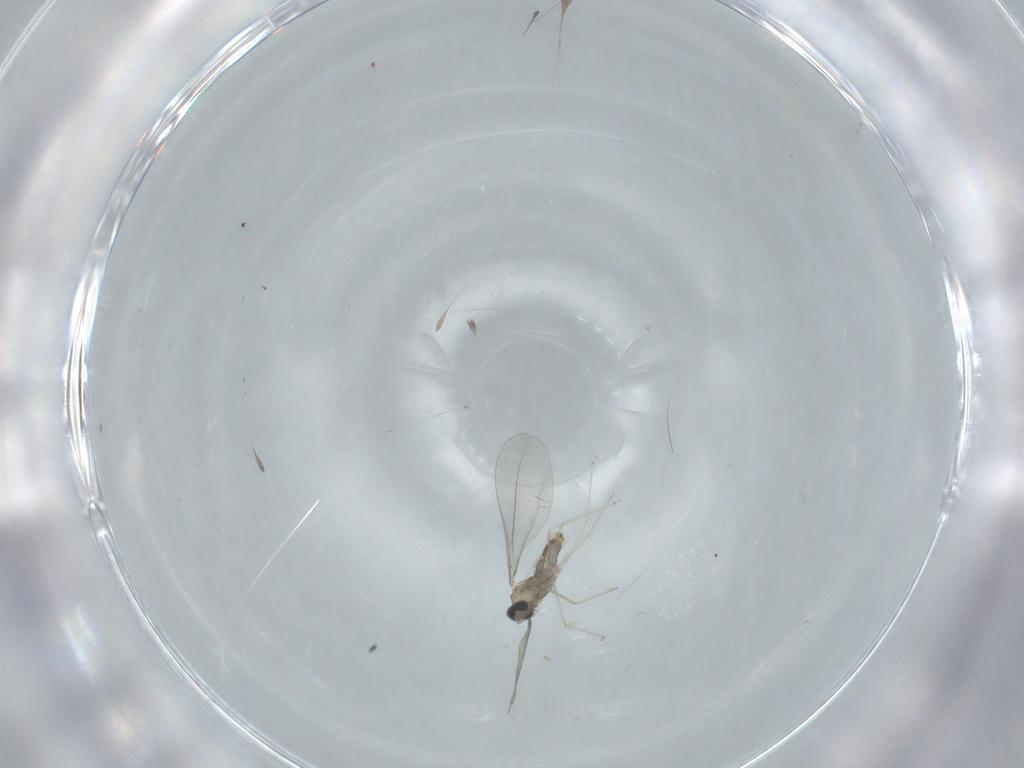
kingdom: Animalia
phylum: Arthropoda
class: Insecta
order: Diptera
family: Cecidomyiidae
